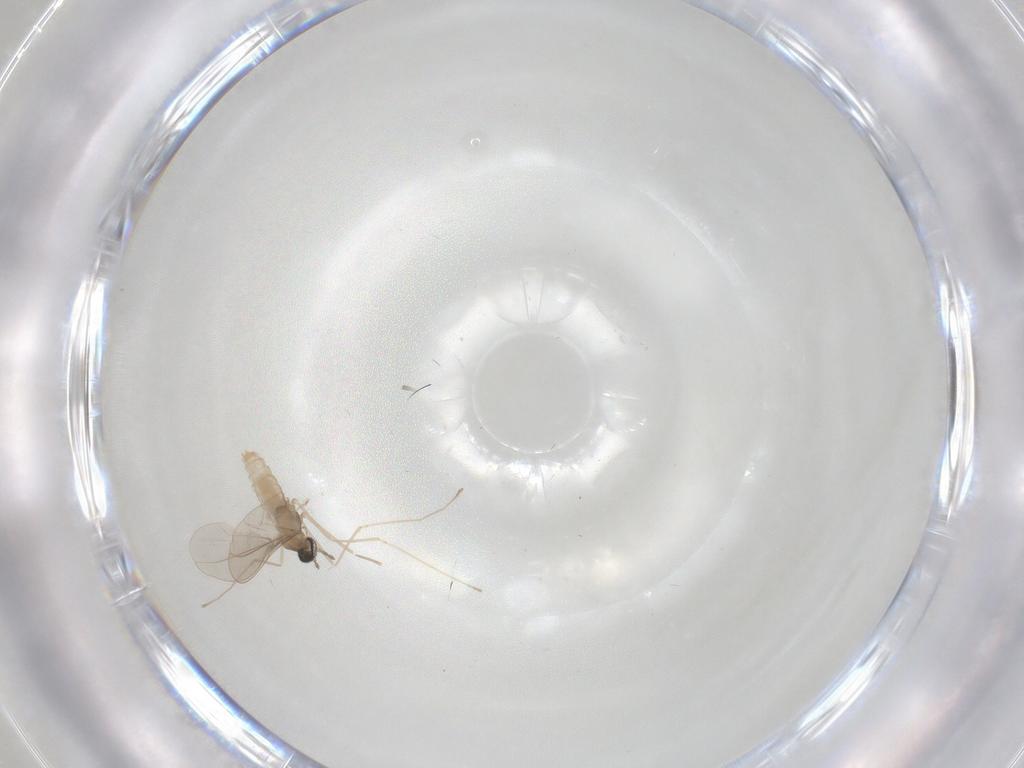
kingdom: Animalia
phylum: Arthropoda
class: Insecta
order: Diptera
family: Cecidomyiidae
